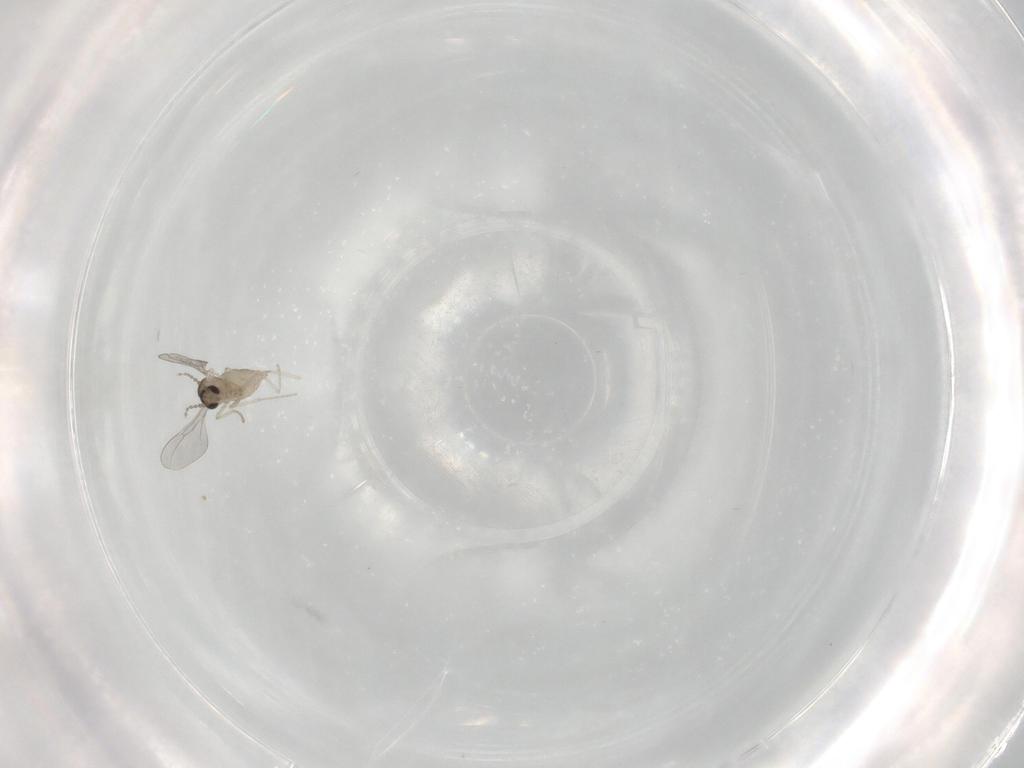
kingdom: Animalia
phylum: Arthropoda
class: Insecta
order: Diptera
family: Cecidomyiidae
